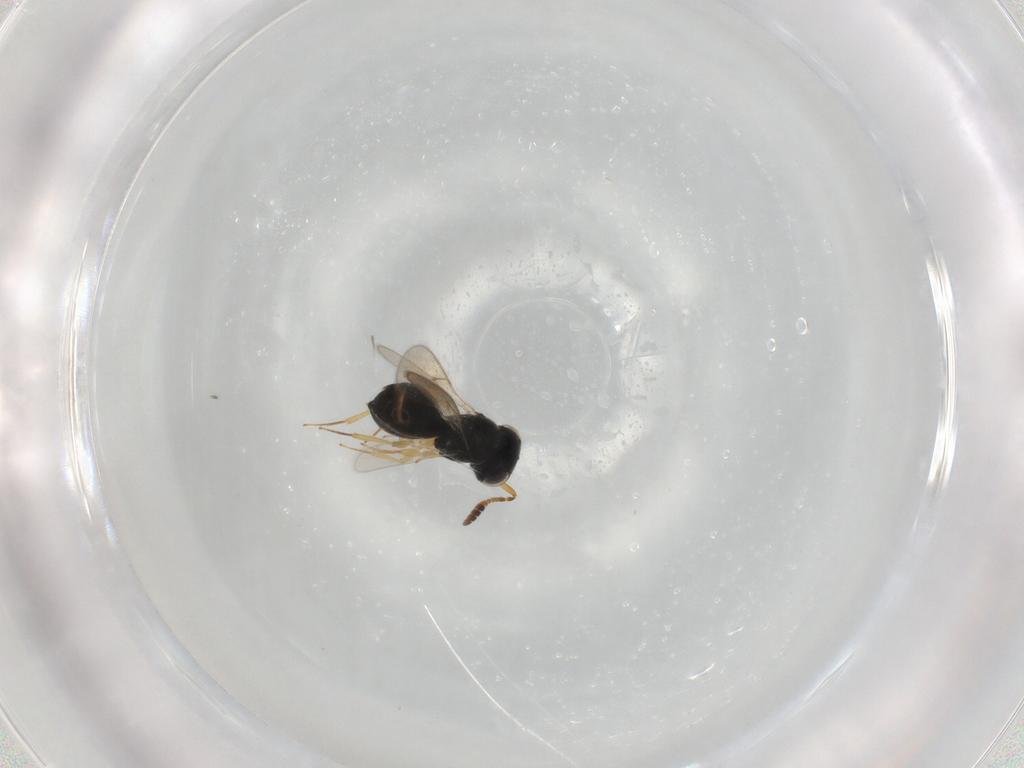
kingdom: Animalia
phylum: Arthropoda
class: Insecta
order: Hymenoptera
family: Scelionidae
